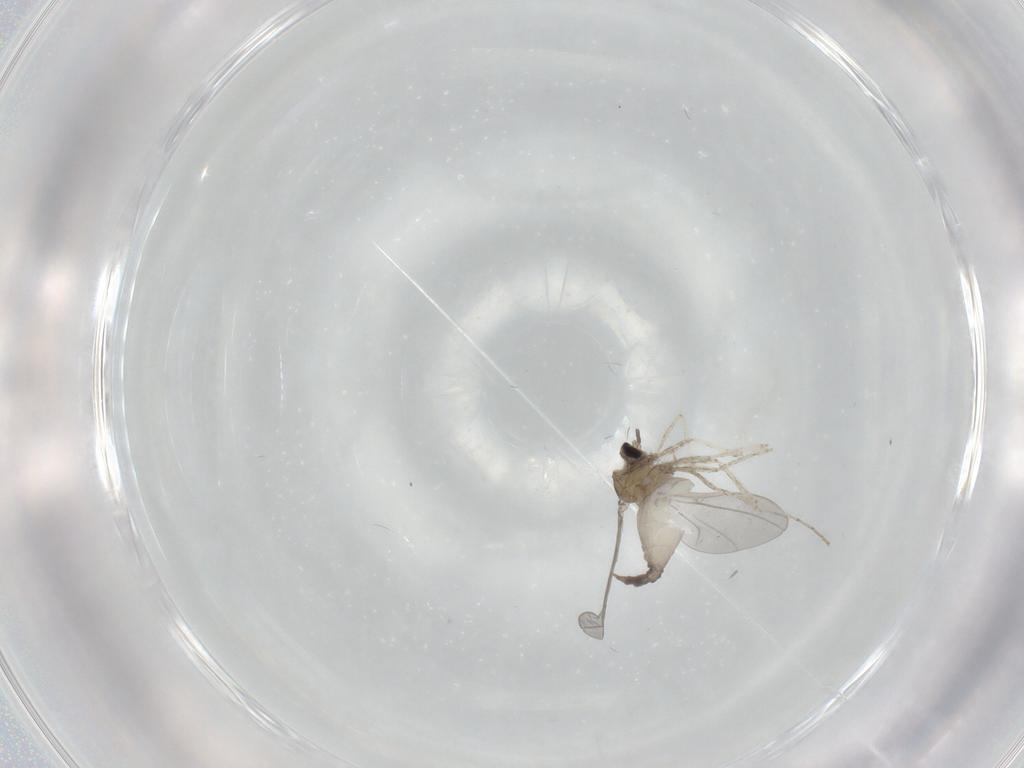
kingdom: Animalia
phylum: Arthropoda
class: Insecta
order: Diptera
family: Cecidomyiidae
